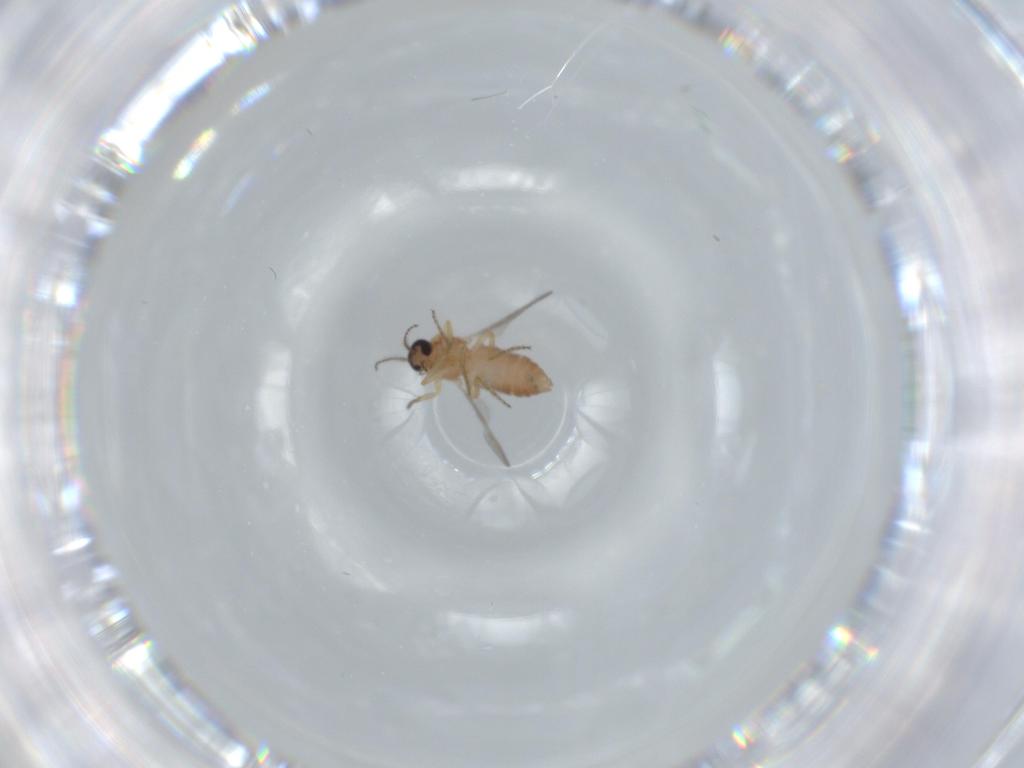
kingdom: Animalia
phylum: Arthropoda
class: Insecta
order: Diptera
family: Ceratopogonidae
